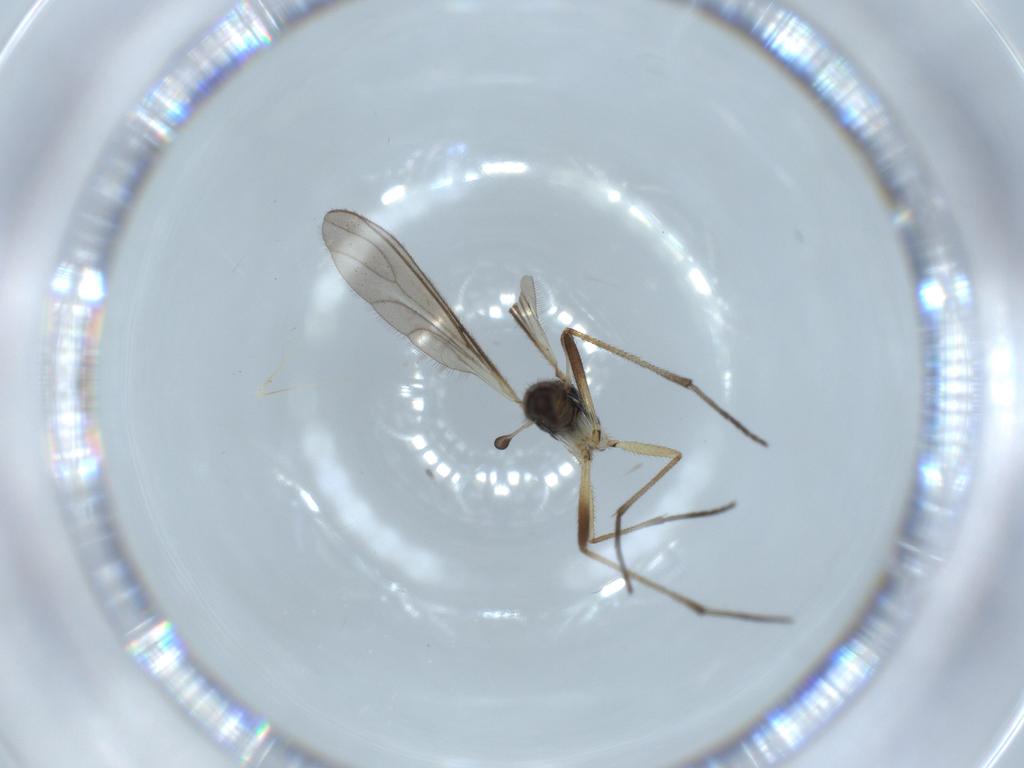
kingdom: Animalia
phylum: Arthropoda
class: Insecta
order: Diptera
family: Sciaridae
